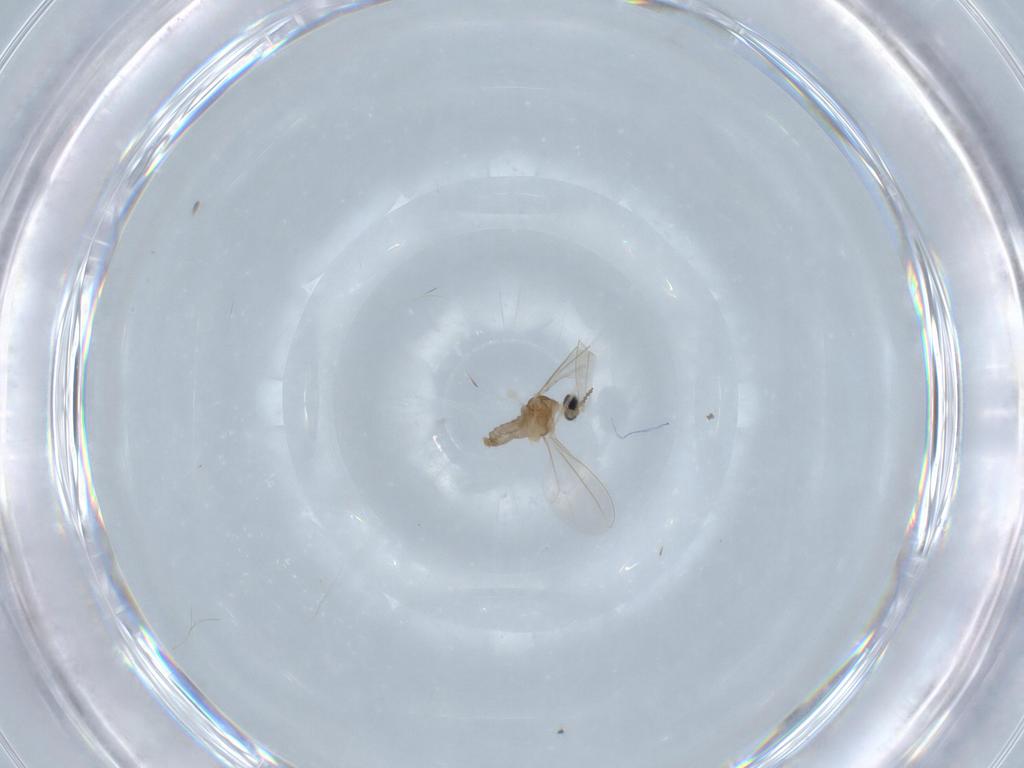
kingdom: Animalia
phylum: Arthropoda
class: Insecta
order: Diptera
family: Cecidomyiidae
